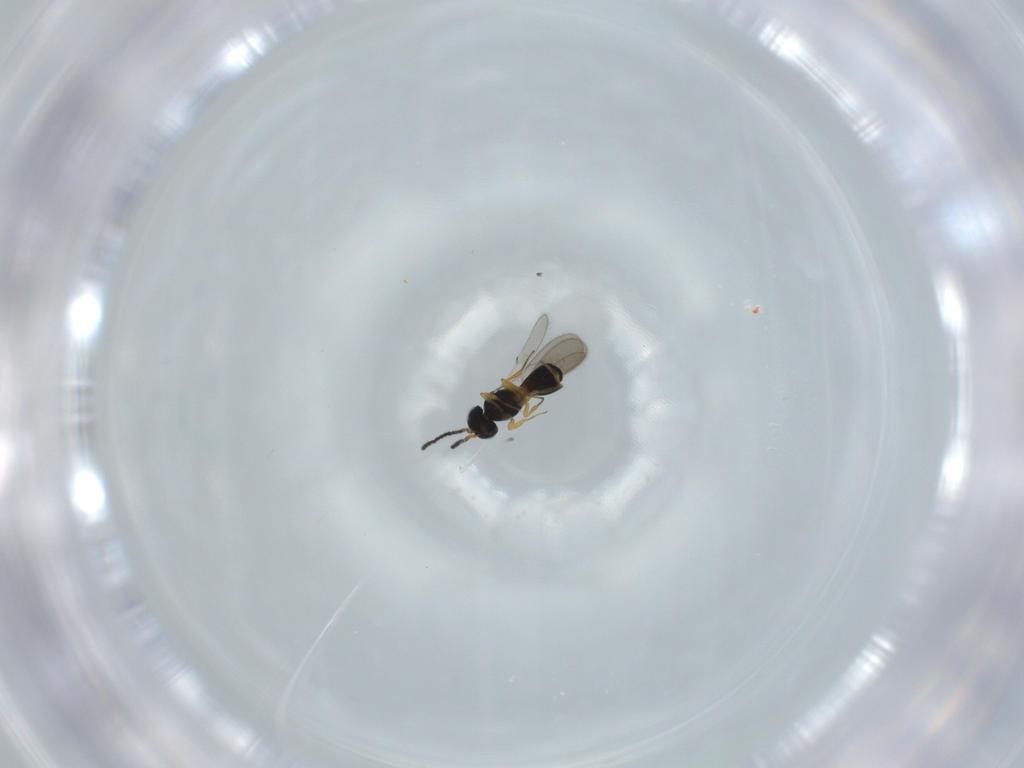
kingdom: Animalia
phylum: Arthropoda
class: Insecta
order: Hymenoptera
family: Scelionidae
